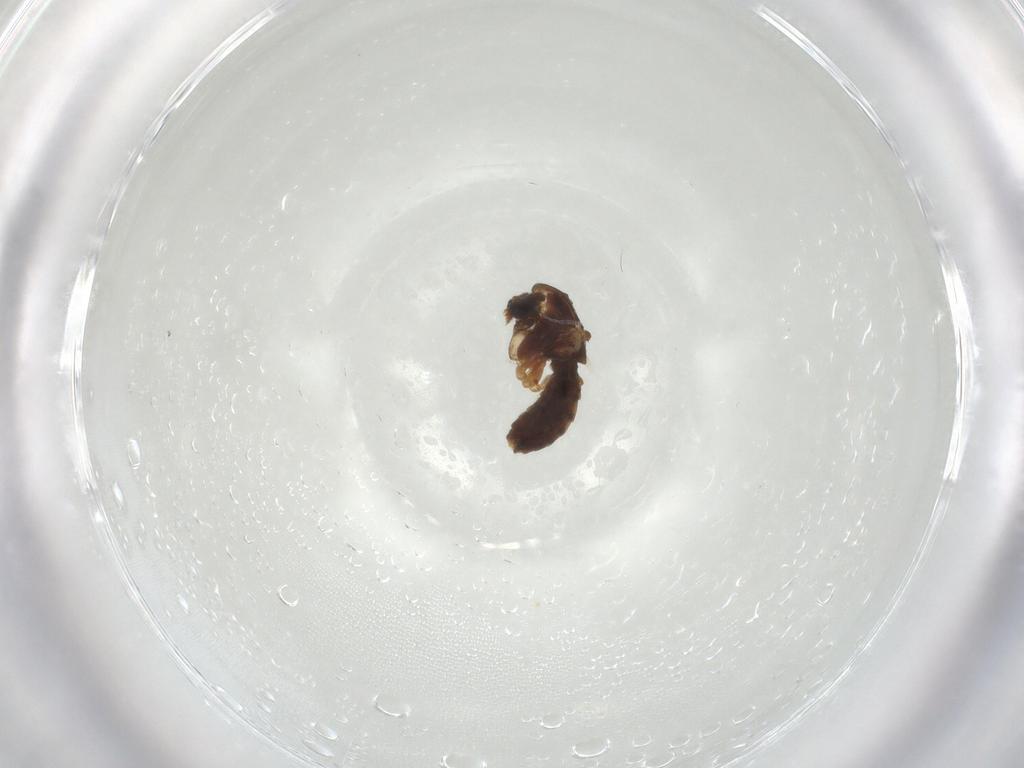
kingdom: Animalia
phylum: Arthropoda
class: Insecta
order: Diptera
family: Chironomidae
